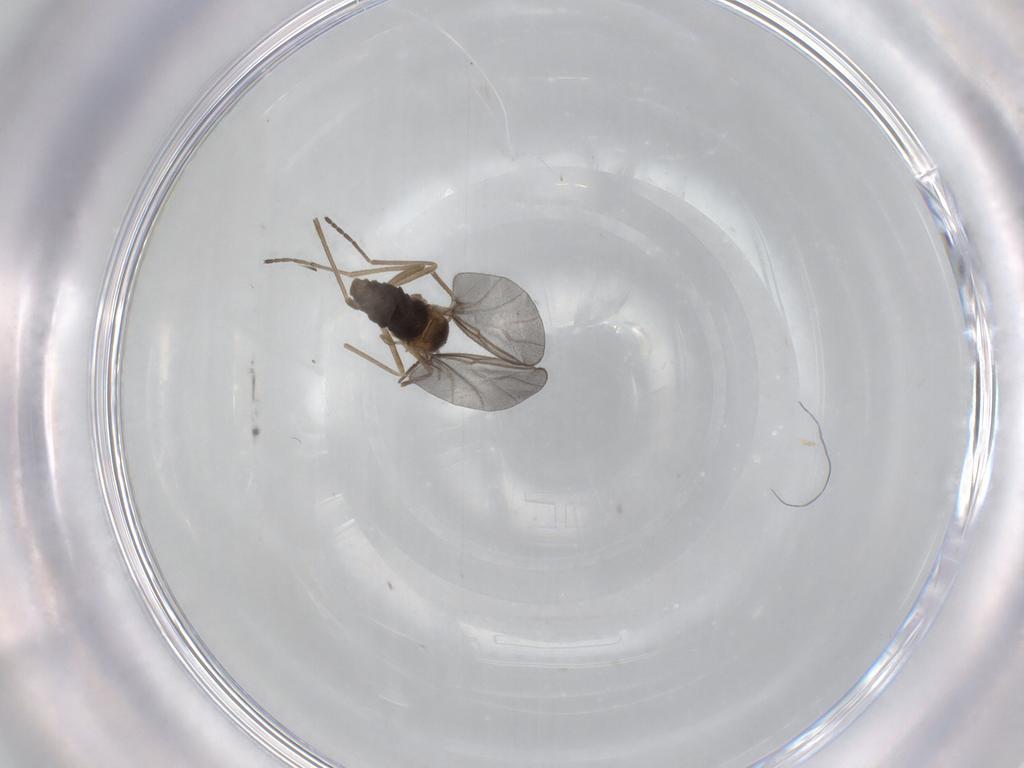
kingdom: Animalia
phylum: Arthropoda
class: Insecta
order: Diptera
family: Cecidomyiidae
